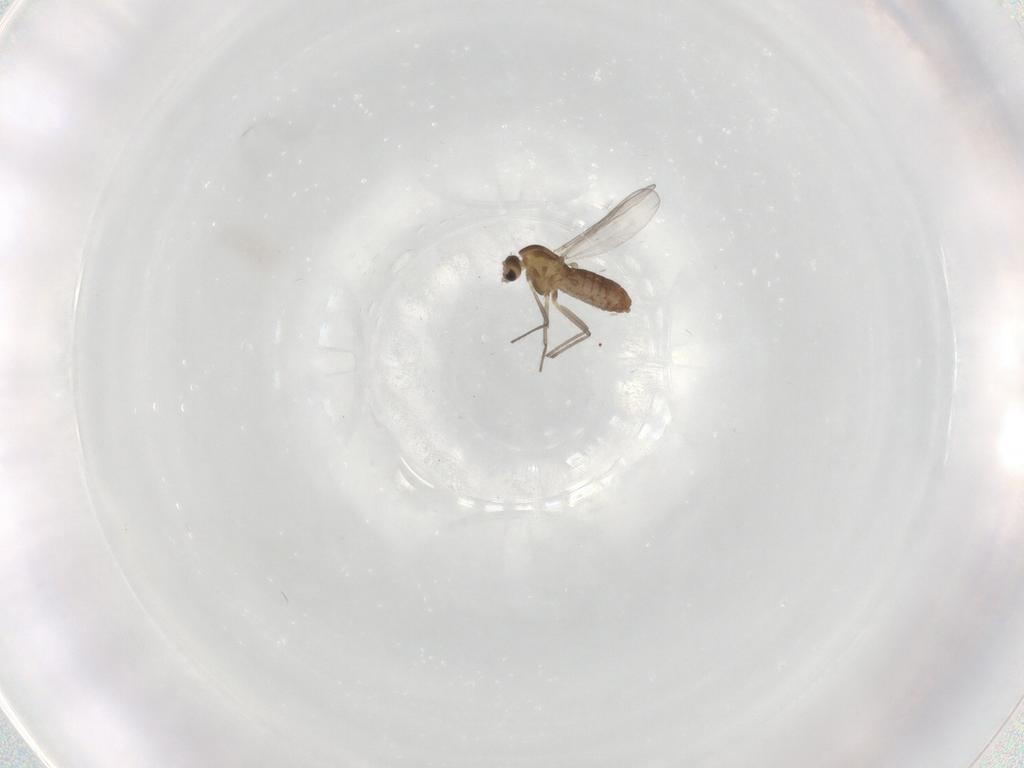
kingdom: Animalia
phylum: Arthropoda
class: Insecta
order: Diptera
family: Chironomidae
